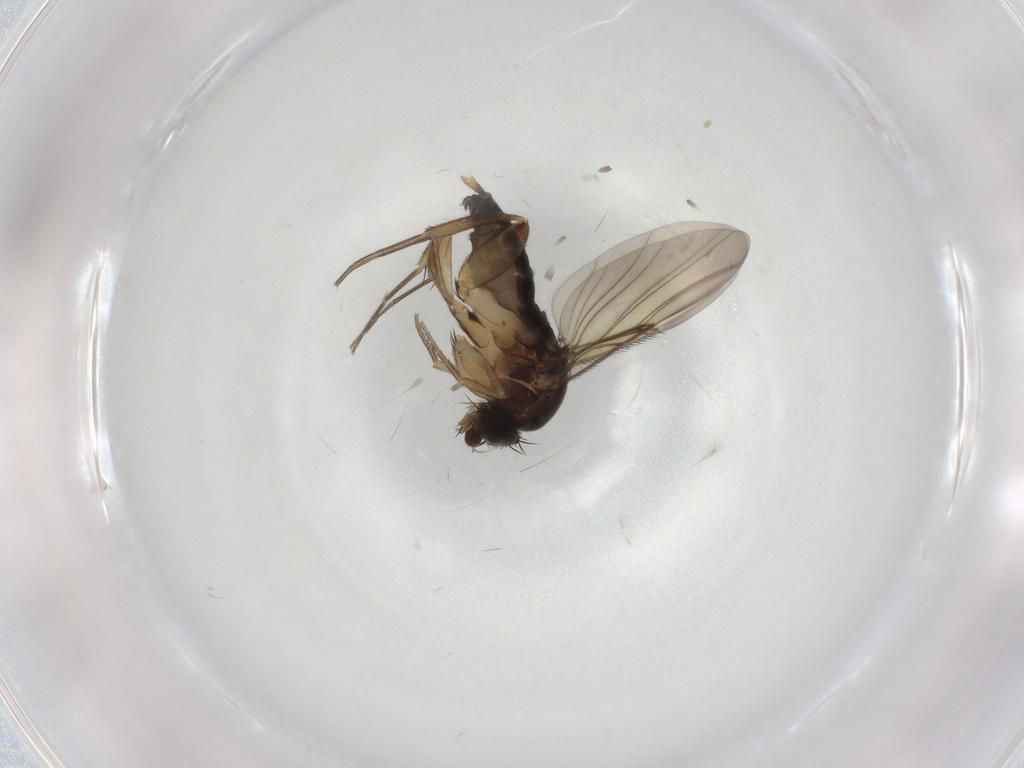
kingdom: Animalia
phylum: Arthropoda
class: Insecta
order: Diptera
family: Phoridae
